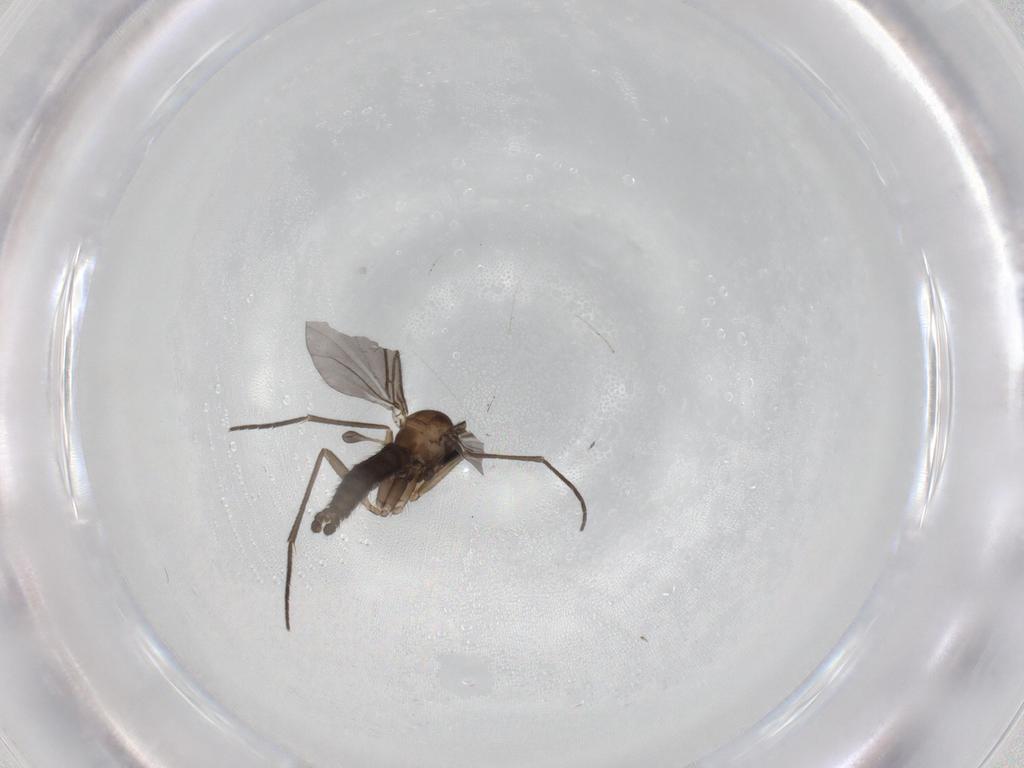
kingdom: Animalia
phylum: Arthropoda
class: Insecta
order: Diptera
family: Sciaridae
